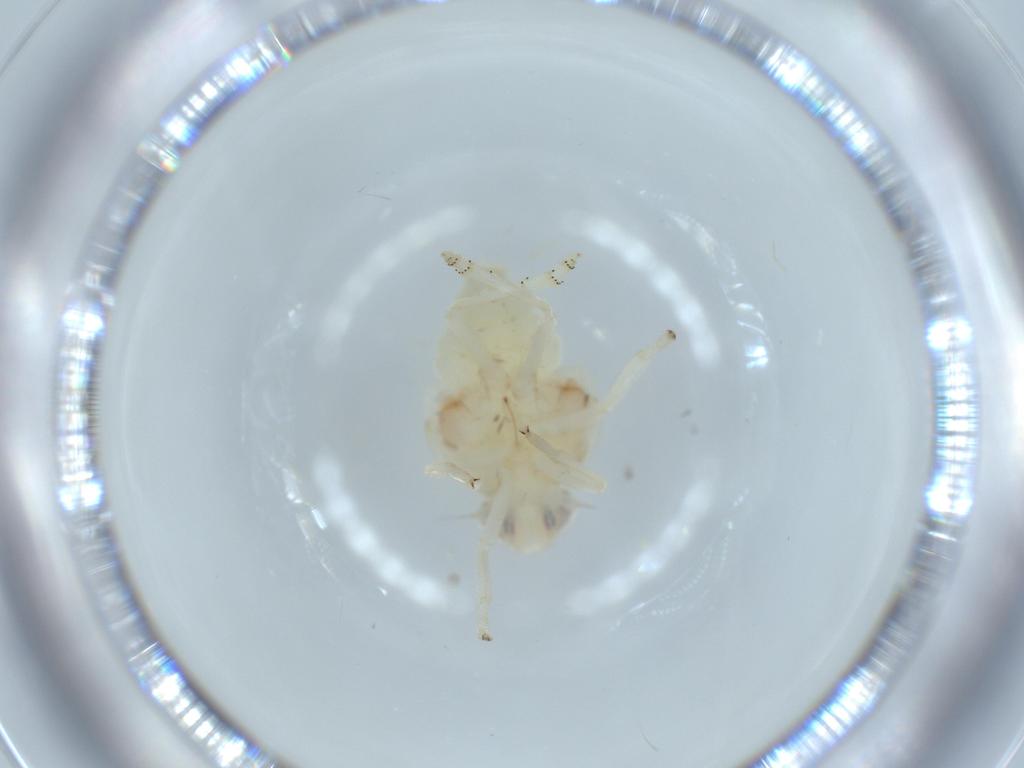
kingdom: Animalia
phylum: Arthropoda
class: Insecta
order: Hemiptera
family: Nogodinidae
